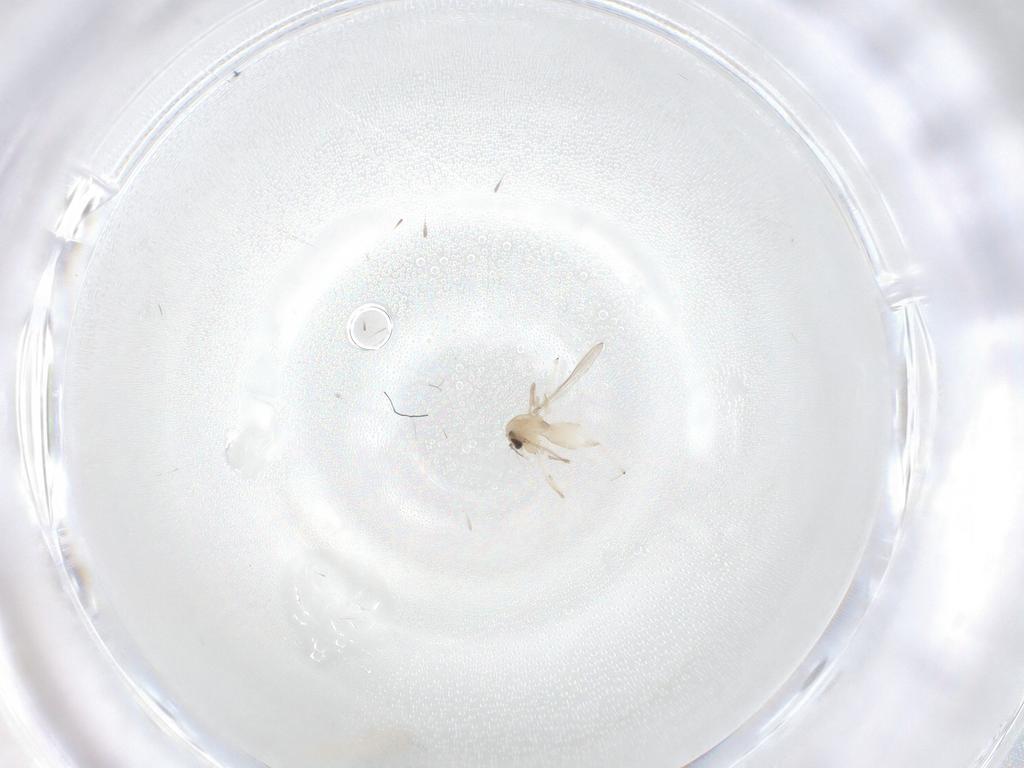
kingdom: Animalia
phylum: Arthropoda
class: Insecta
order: Diptera
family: Chironomidae
